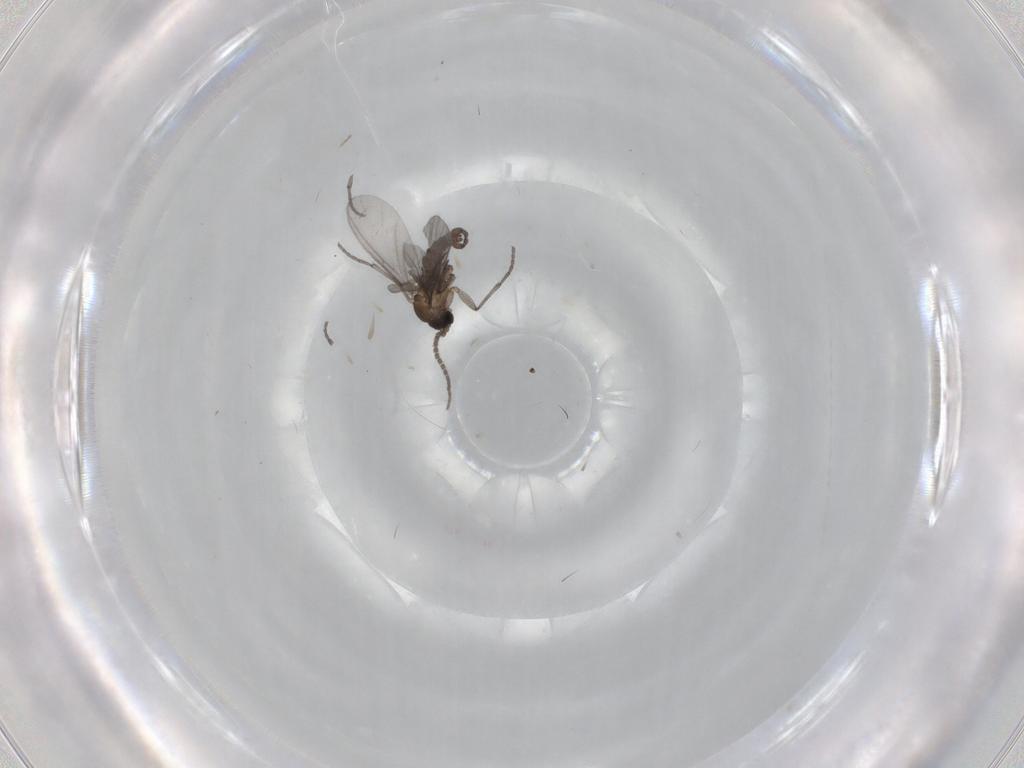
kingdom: Animalia
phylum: Arthropoda
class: Insecta
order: Diptera
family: Sciaridae
